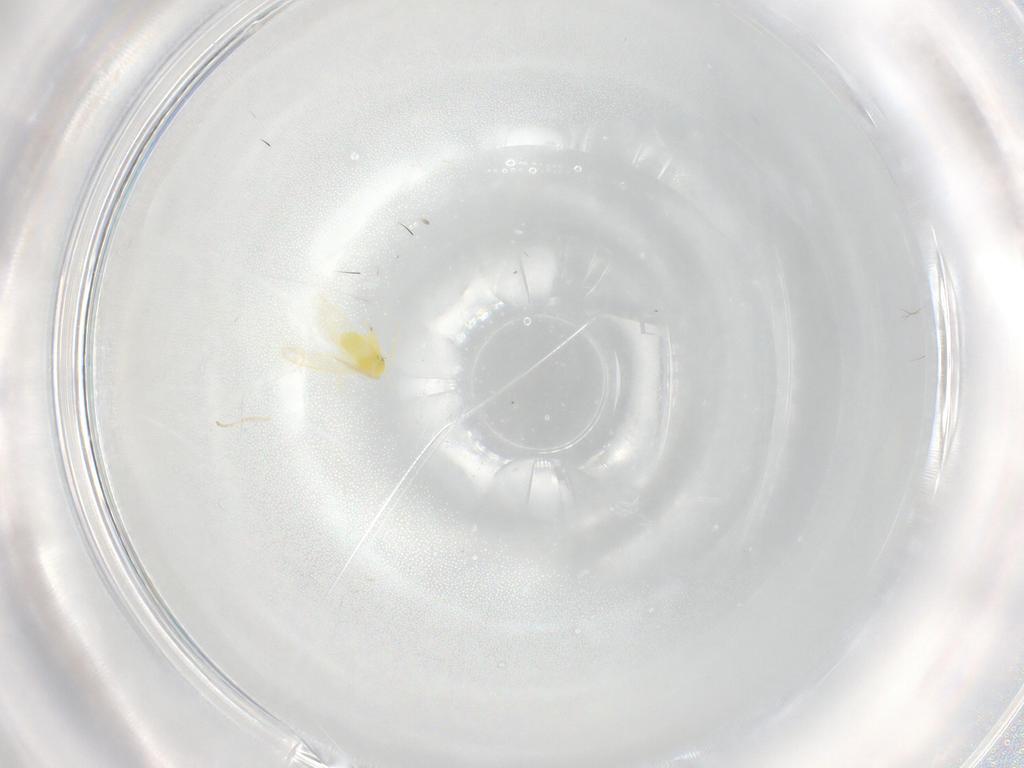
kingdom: Animalia
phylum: Arthropoda
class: Insecta
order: Hemiptera
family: Cicadellidae
